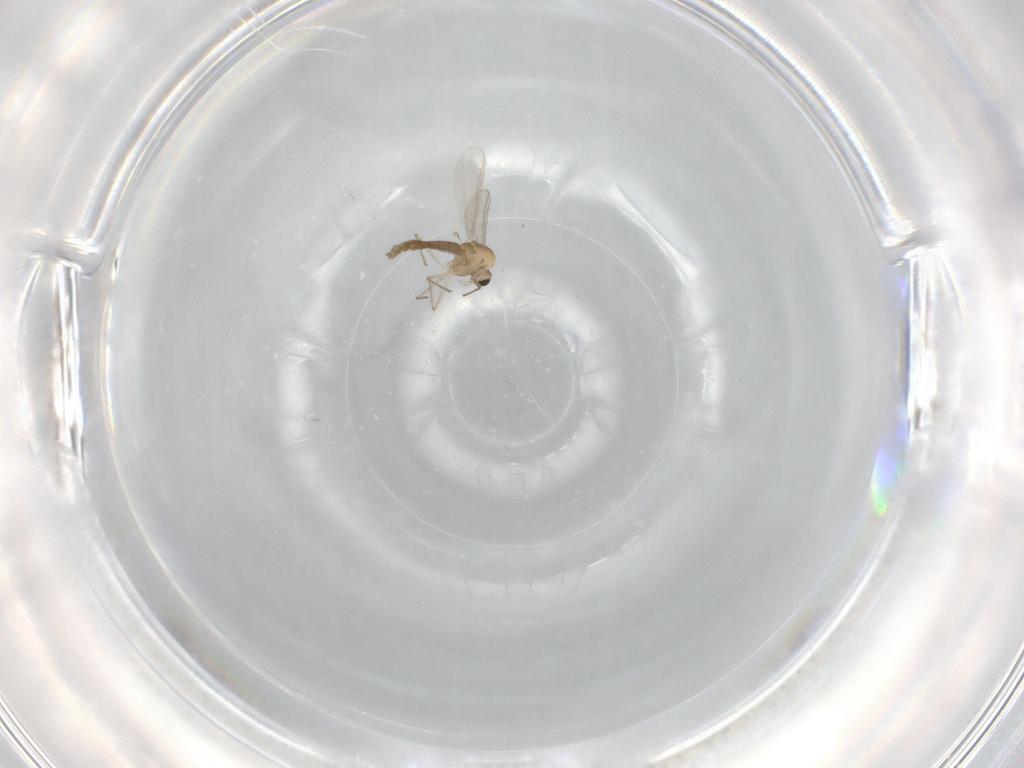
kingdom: Animalia
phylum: Arthropoda
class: Insecta
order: Diptera
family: Chironomidae
